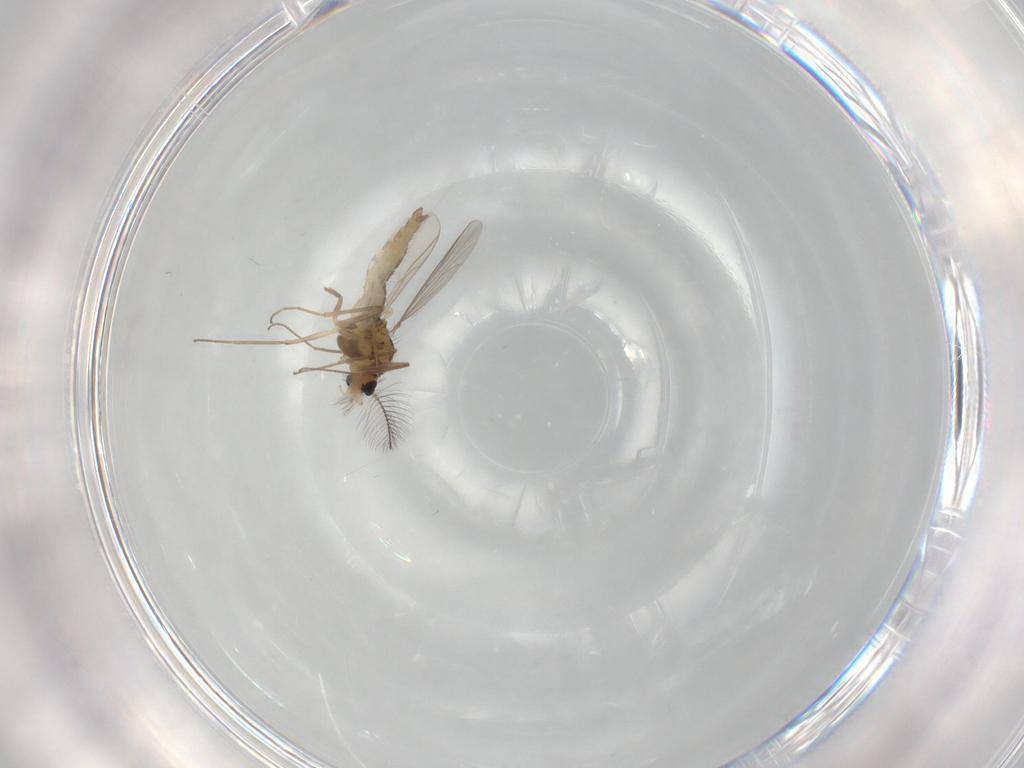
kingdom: Animalia
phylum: Arthropoda
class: Insecta
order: Diptera
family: Chironomidae
